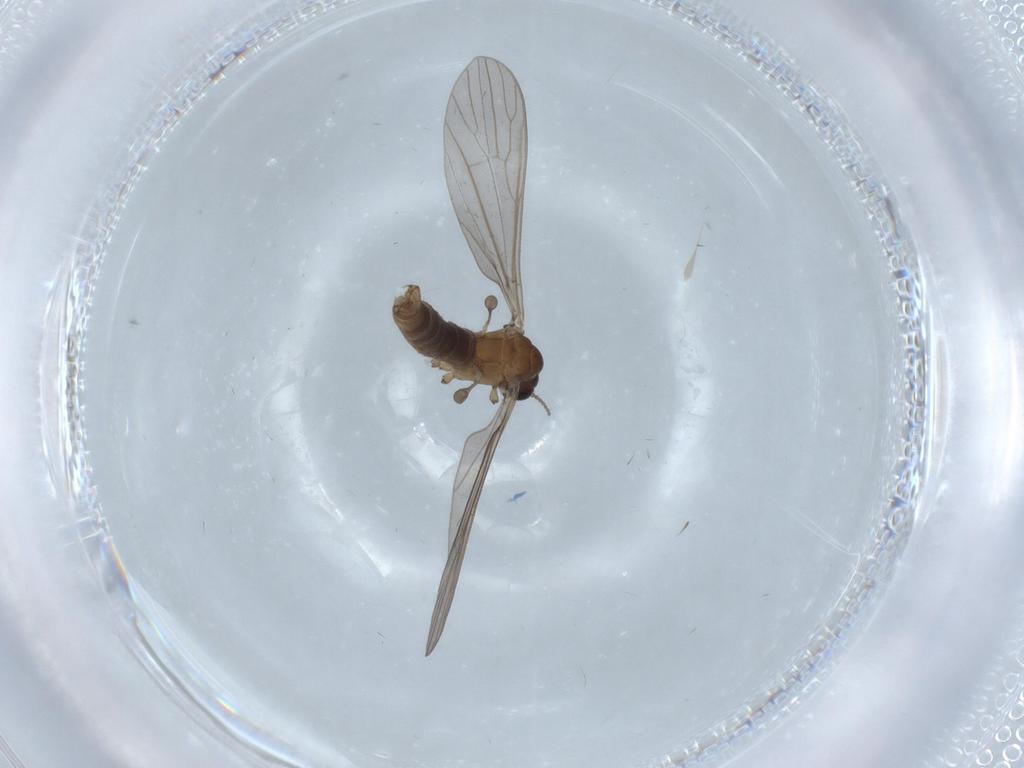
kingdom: Animalia
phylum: Arthropoda
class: Insecta
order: Diptera
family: Limoniidae
